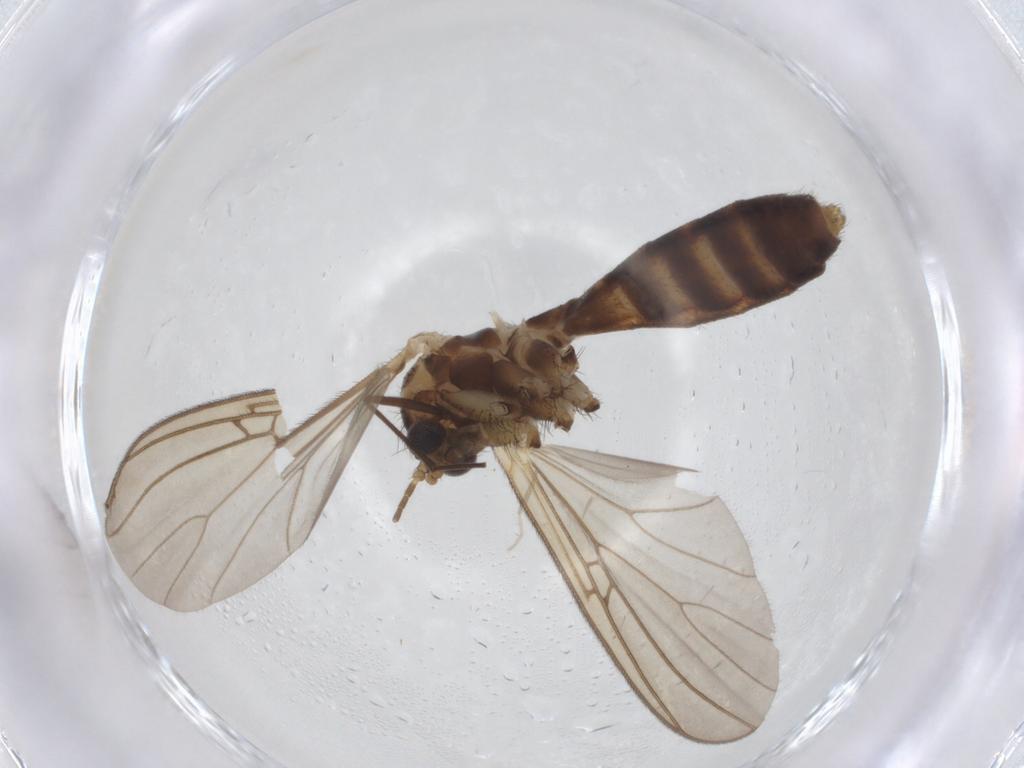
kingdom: Animalia
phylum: Arthropoda
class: Insecta
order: Diptera
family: Mycetophilidae
